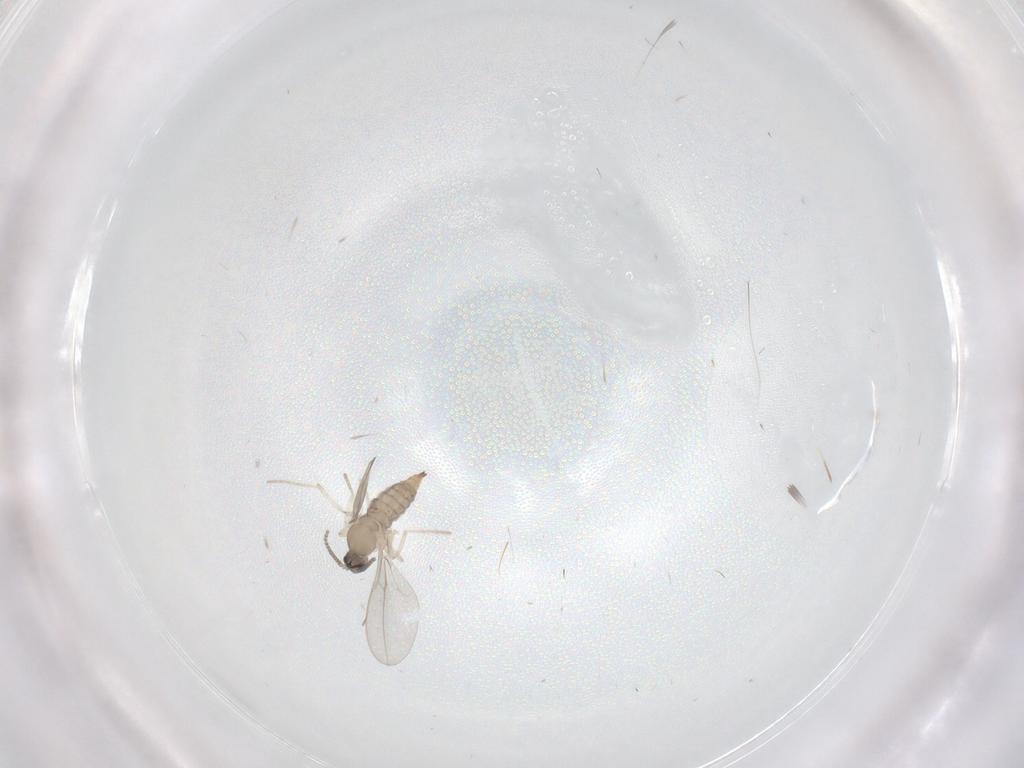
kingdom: Animalia
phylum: Arthropoda
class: Insecta
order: Diptera
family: Cecidomyiidae
